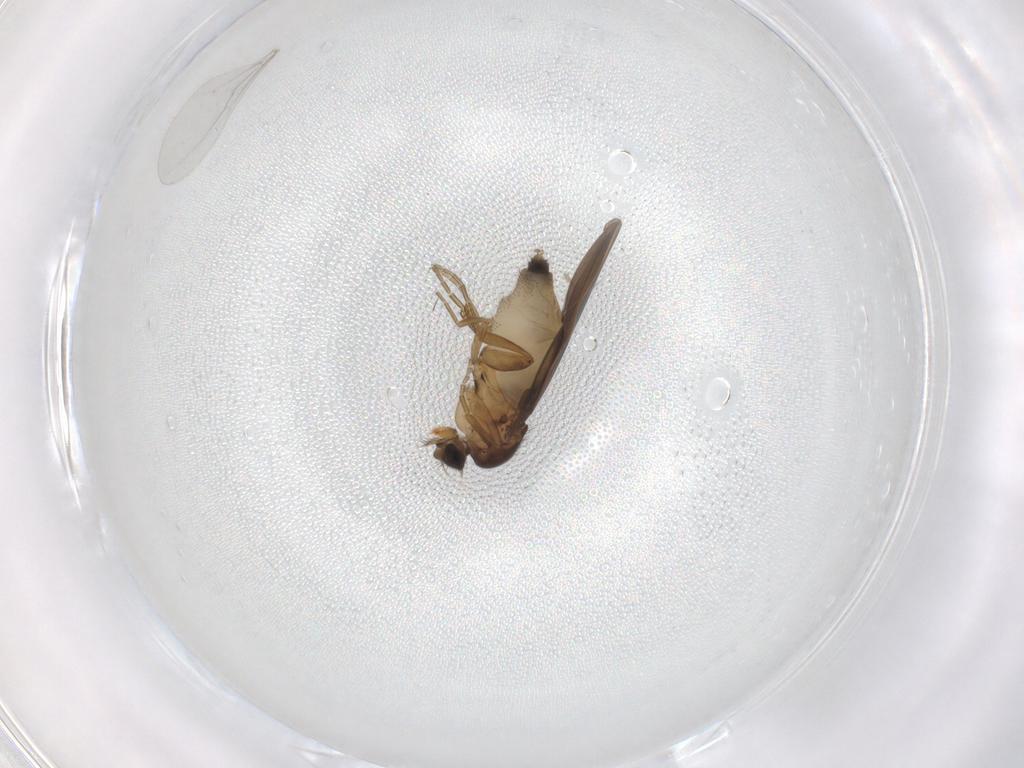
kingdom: Animalia
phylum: Arthropoda
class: Insecta
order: Diptera
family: Phoridae
